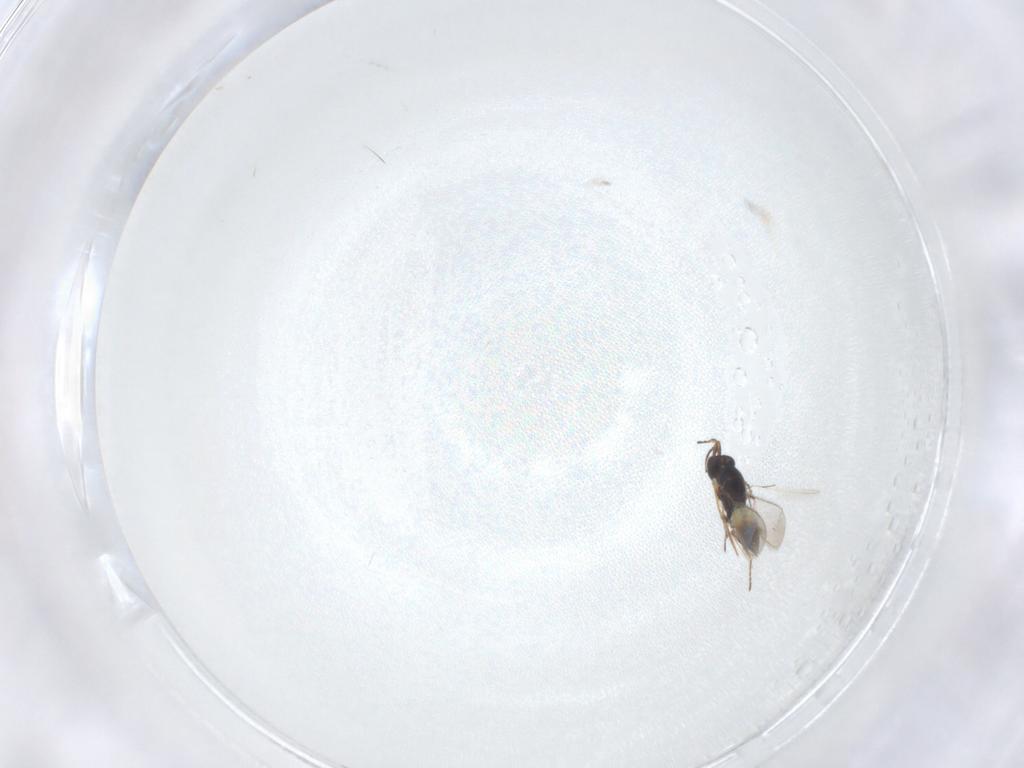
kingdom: Animalia
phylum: Arthropoda
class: Insecta
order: Hymenoptera
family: Mymaridae
